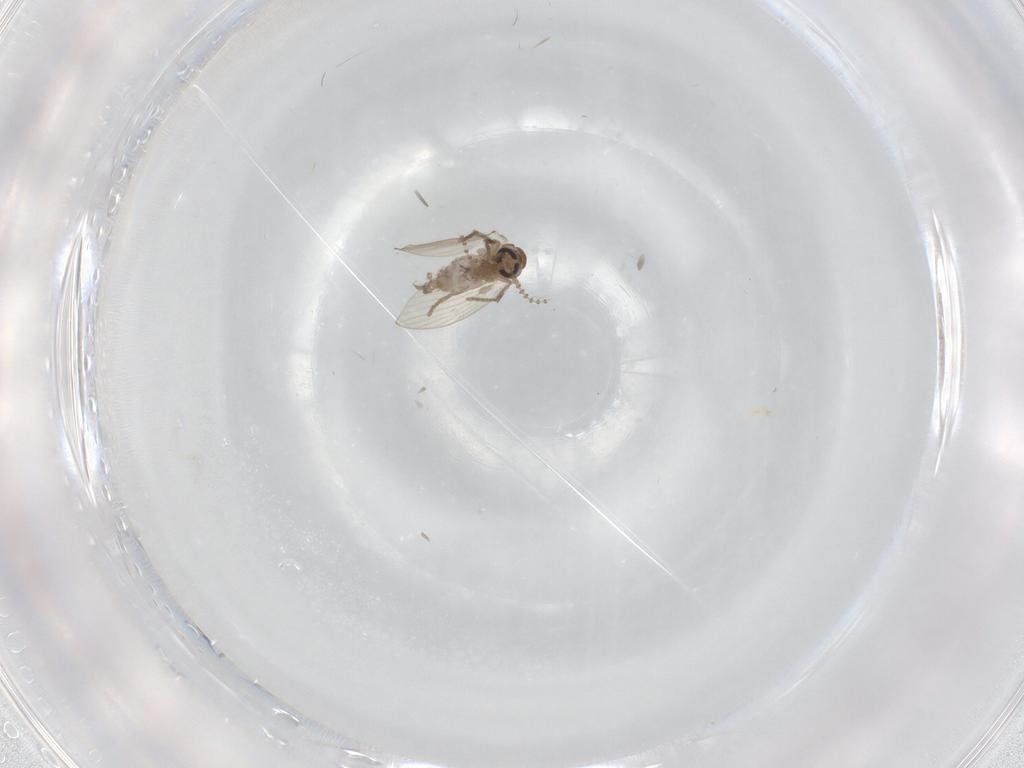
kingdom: Animalia
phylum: Arthropoda
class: Insecta
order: Diptera
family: Psychodidae
